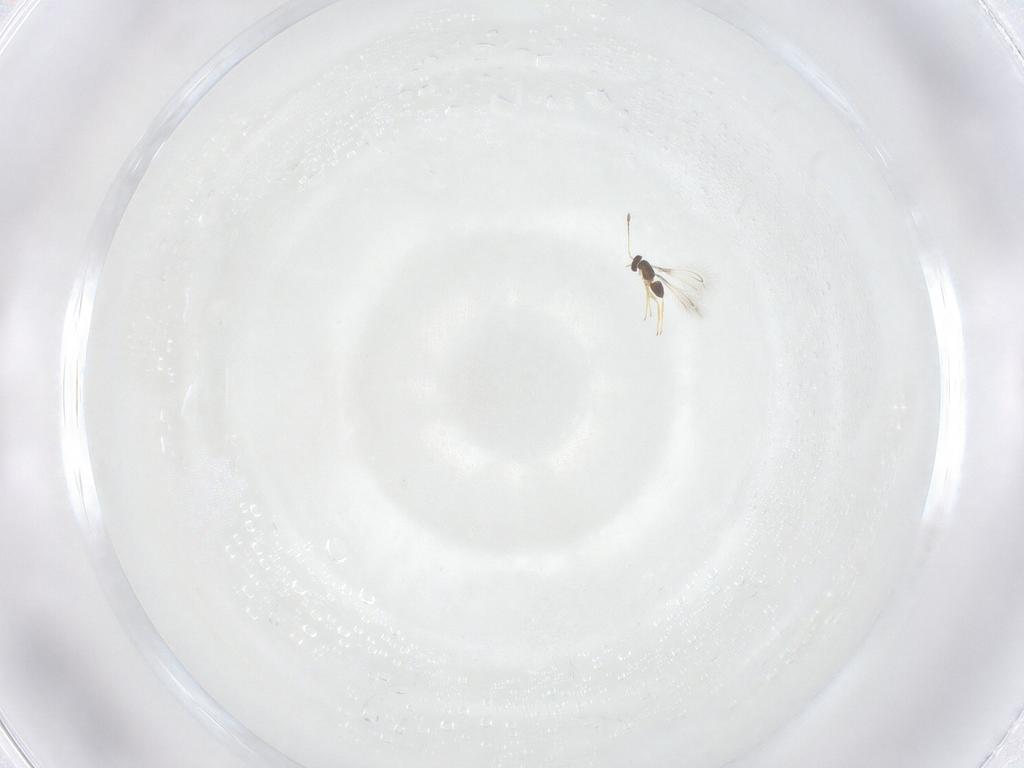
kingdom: Animalia
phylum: Arthropoda
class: Insecta
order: Hymenoptera
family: Mymaridae
